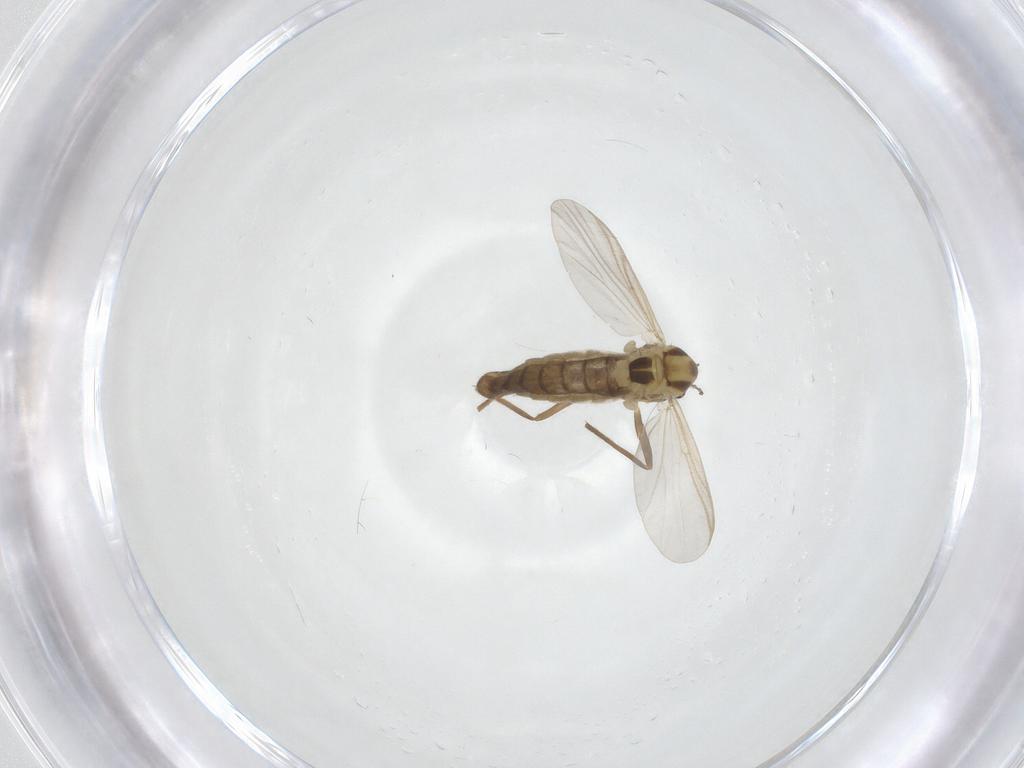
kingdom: Animalia
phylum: Arthropoda
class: Insecta
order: Diptera
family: Chironomidae
